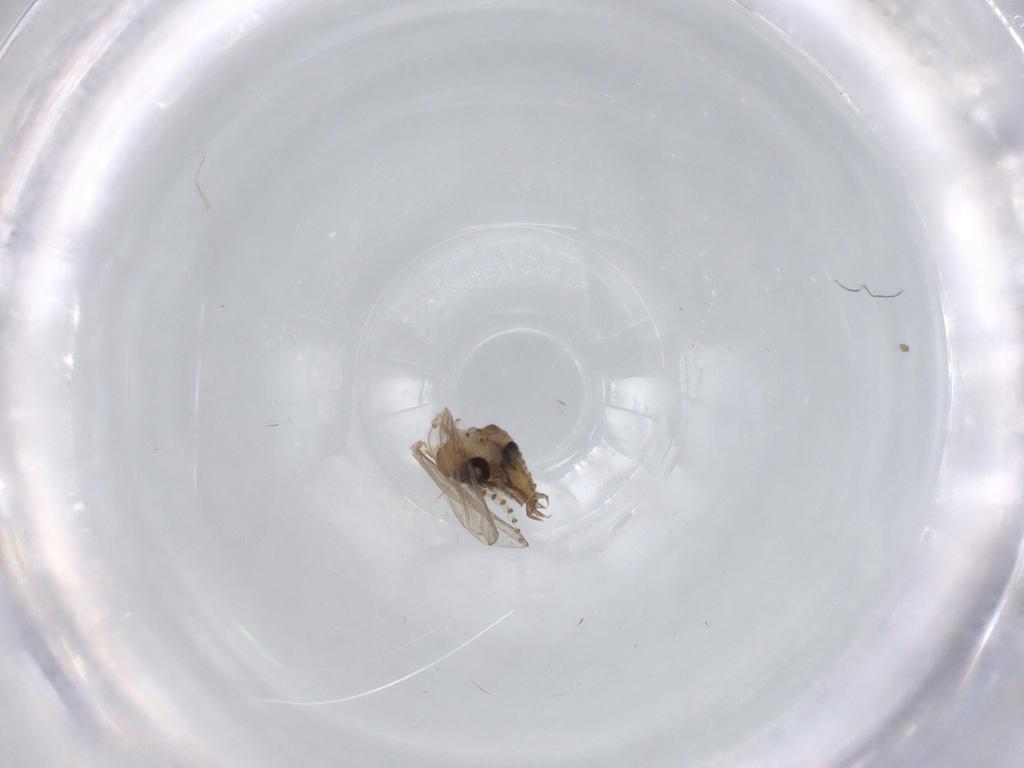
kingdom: Animalia
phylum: Arthropoda
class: Insecta
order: Diptera
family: Psychodidae
